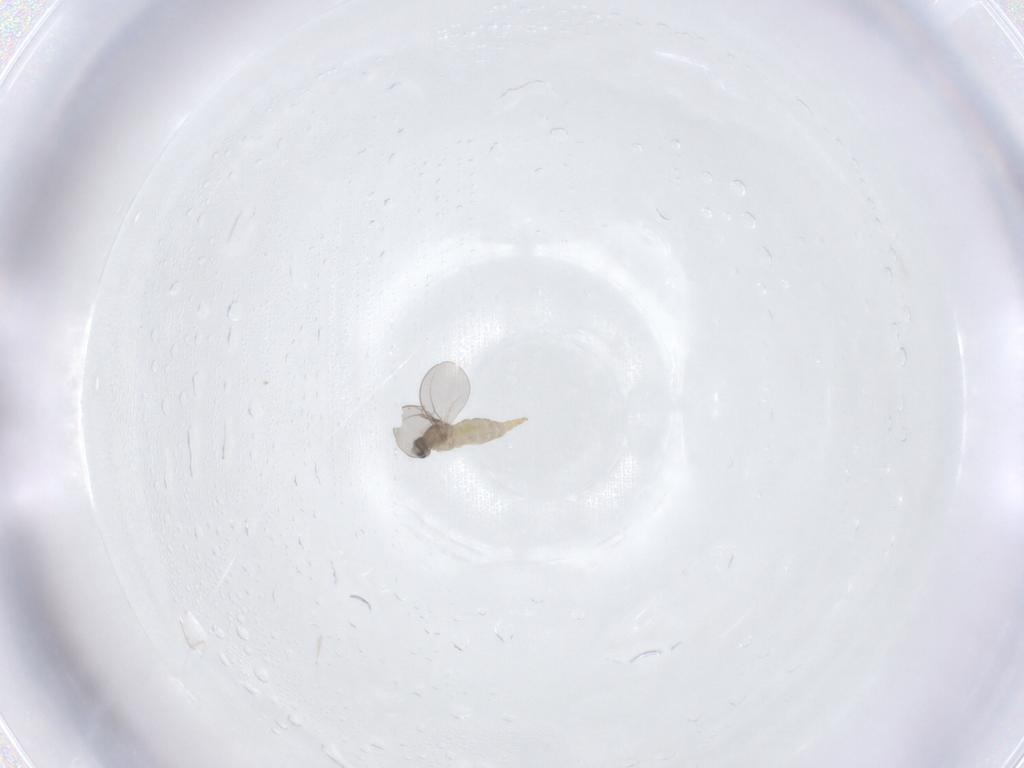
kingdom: Animalia
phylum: Arthropoda
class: Insecta
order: Diptera
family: Cecidomyiidae
